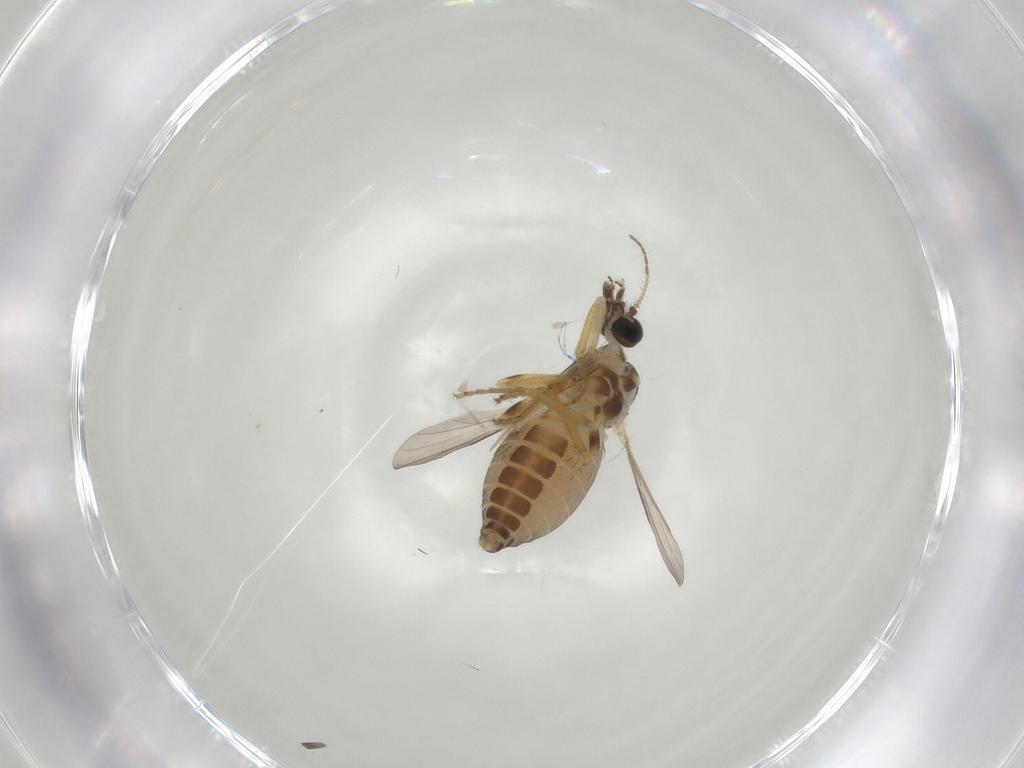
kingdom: Animalia
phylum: Arthropoda
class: Insecta
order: Diptera
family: Ceratopogonidae
